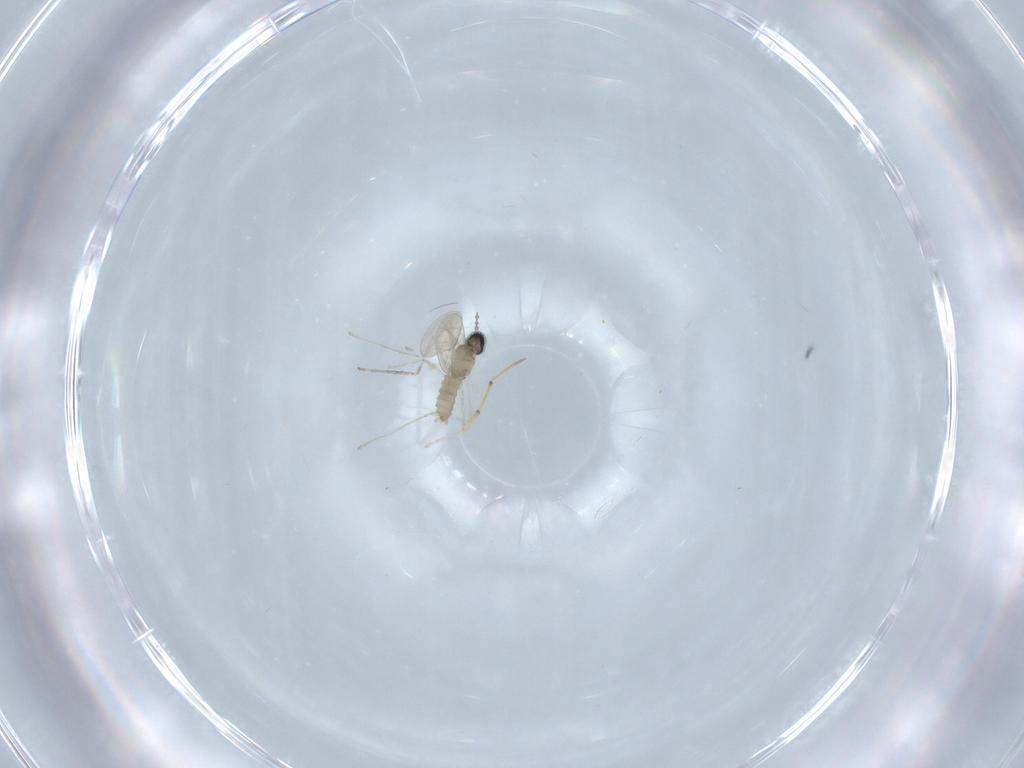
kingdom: Animalia
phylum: Arthropoda
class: Insecta
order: Diptera
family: Cecidomyiidae
